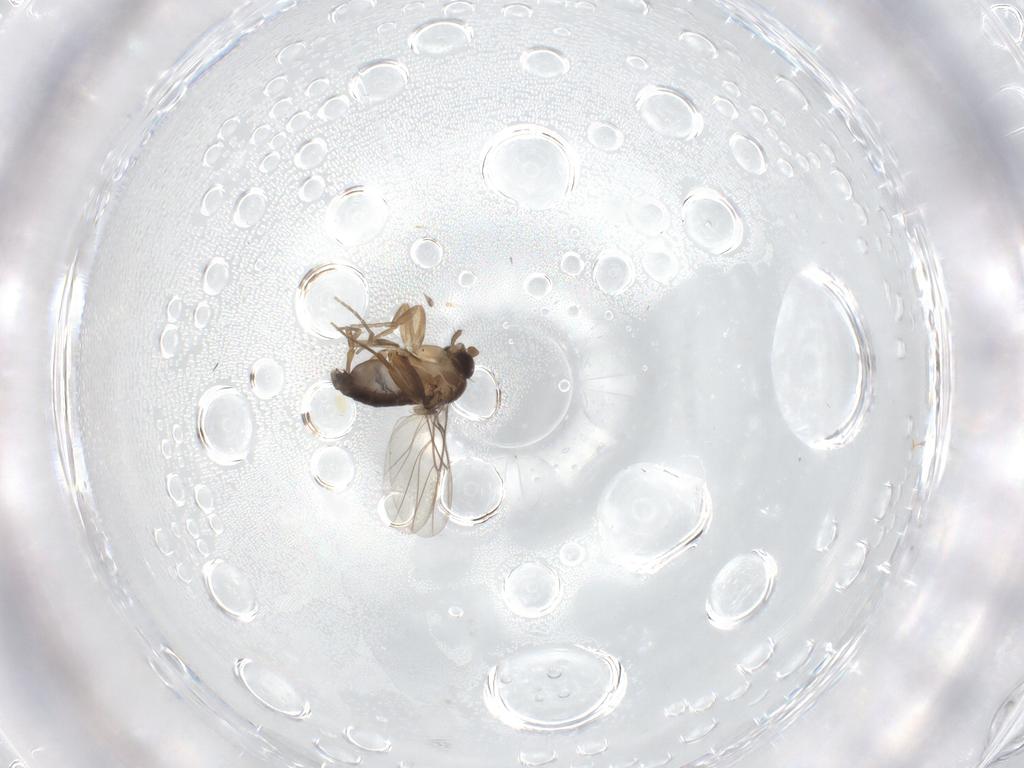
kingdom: Animalia
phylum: Arthropoda
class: Insecta
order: Diptera
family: Phoridae
